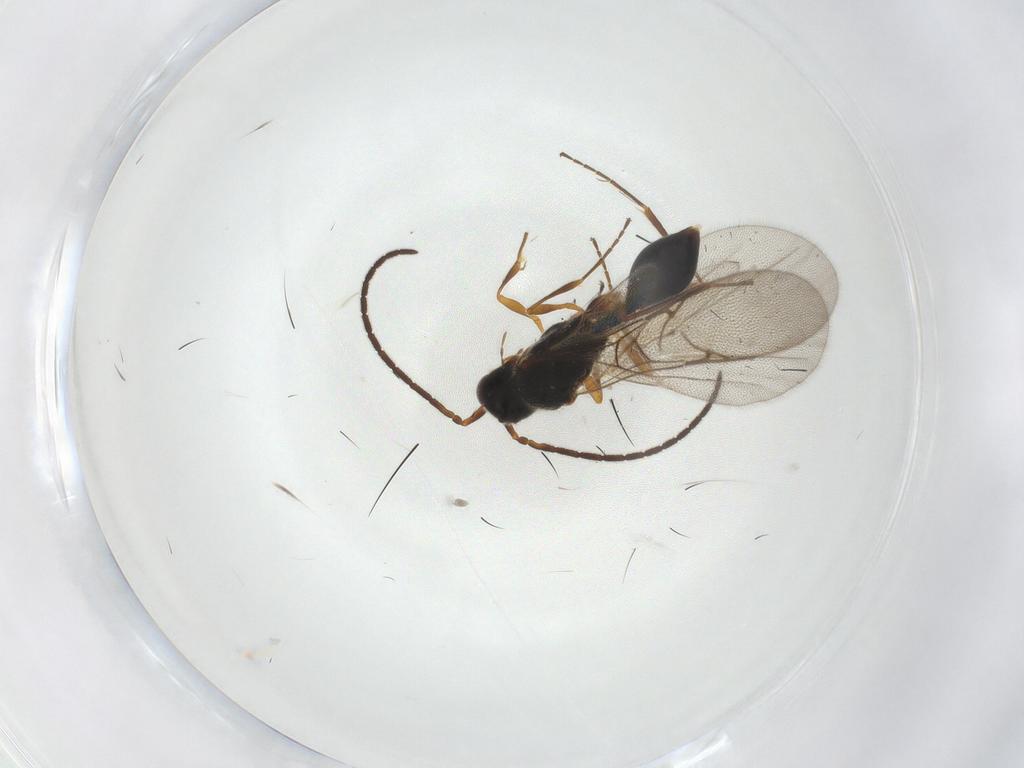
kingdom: Animalia
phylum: Arthropoda
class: Insecta
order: Hymenoptera
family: Diapriidae
